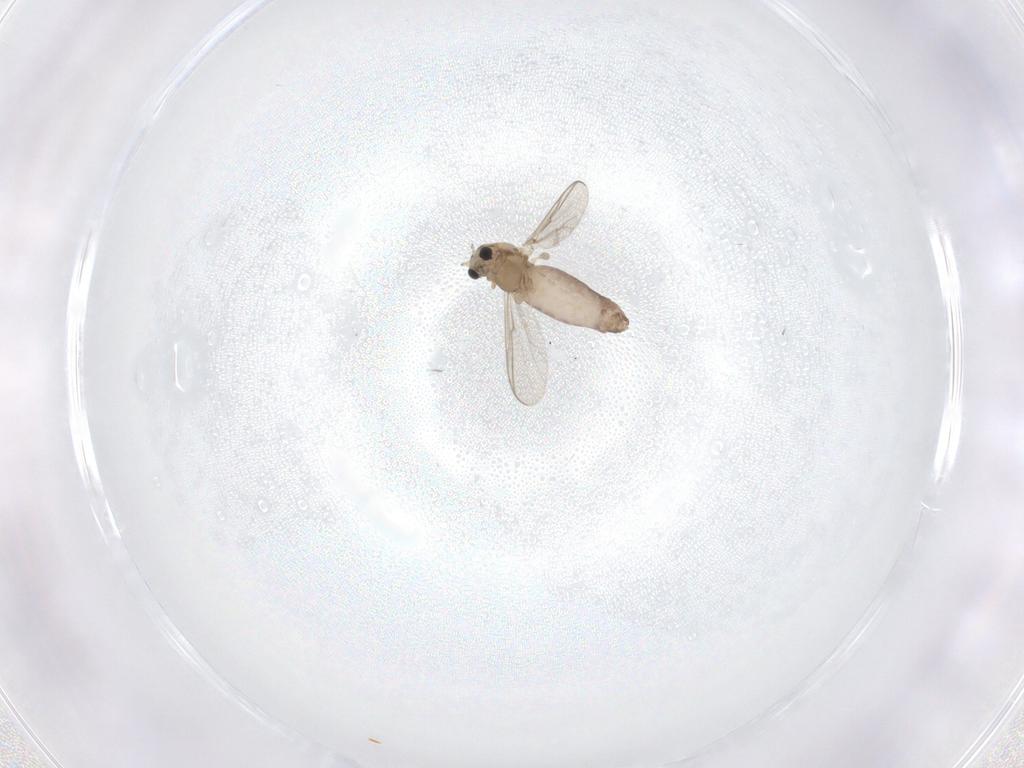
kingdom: Animalia
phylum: Arthropoda
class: Insecta
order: Diptera
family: Chironomidae
